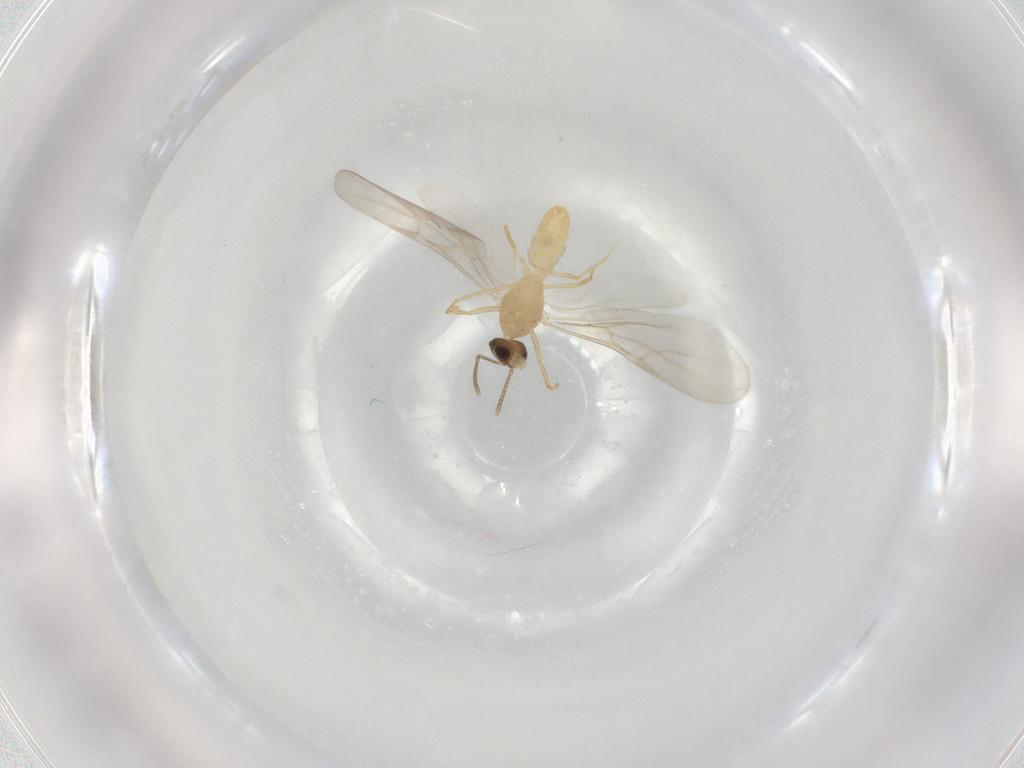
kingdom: Animalia
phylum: Arthropoda
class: Insecta
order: Hymenoptera
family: Formicidae
